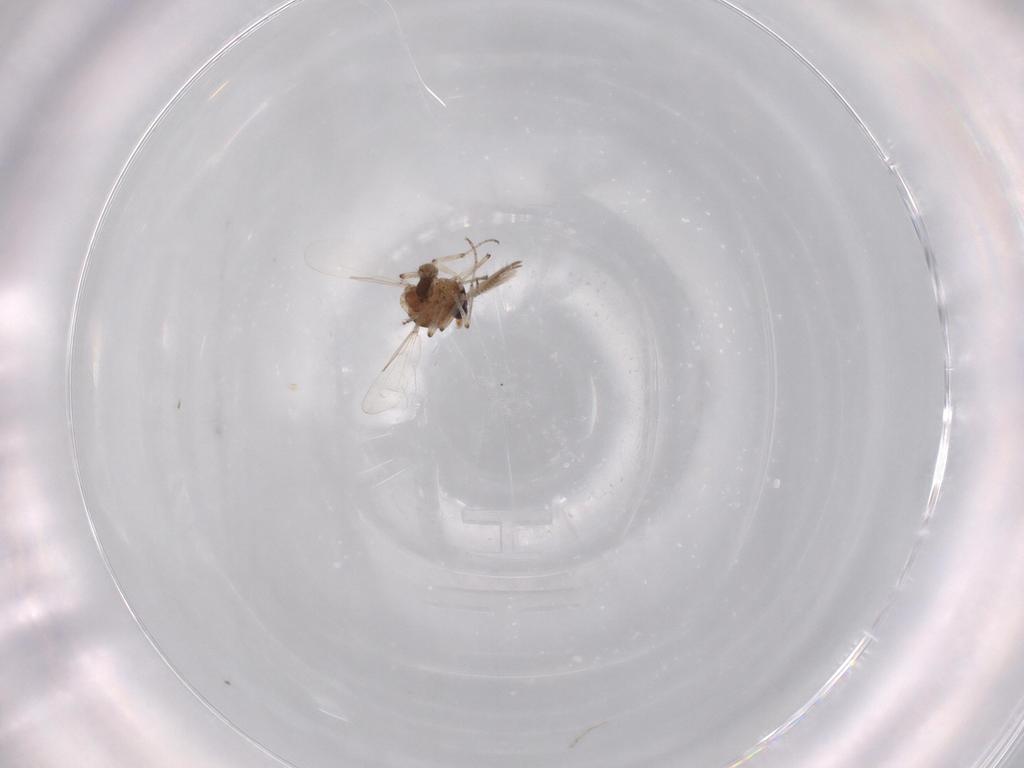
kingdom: Animalia
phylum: Arthropoda
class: Insecta
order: Diptera
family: Ceratopogonidae
